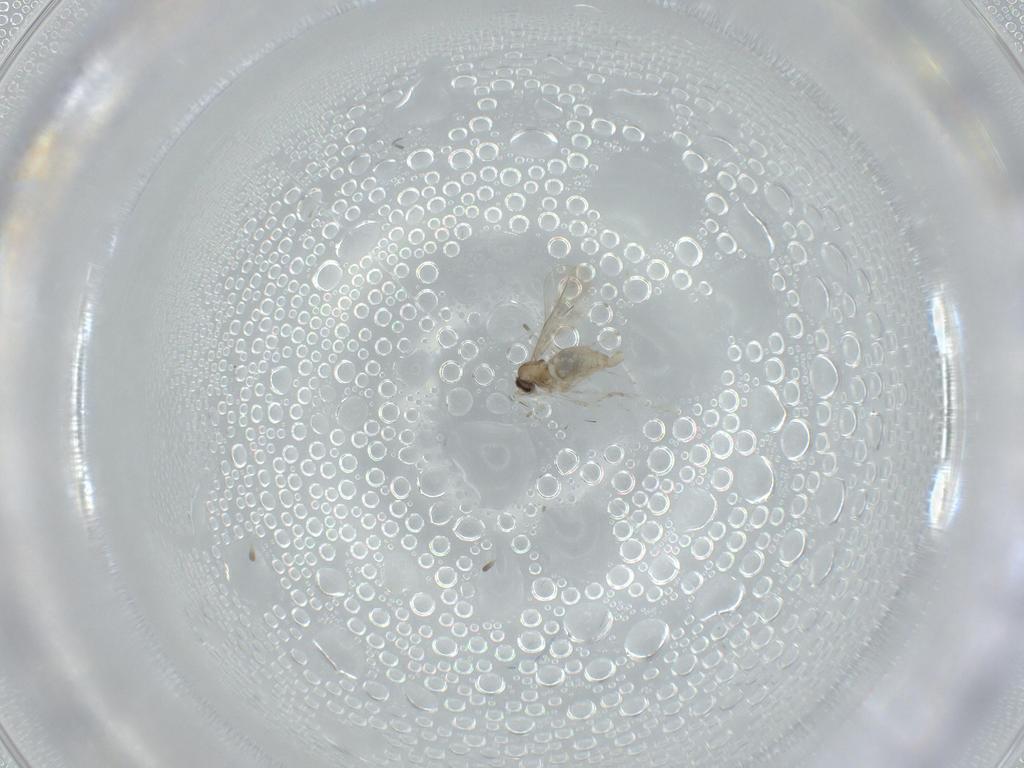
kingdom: Animalia
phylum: Arthropoda
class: Insecta
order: Diptera
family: Cecidomyiidae
